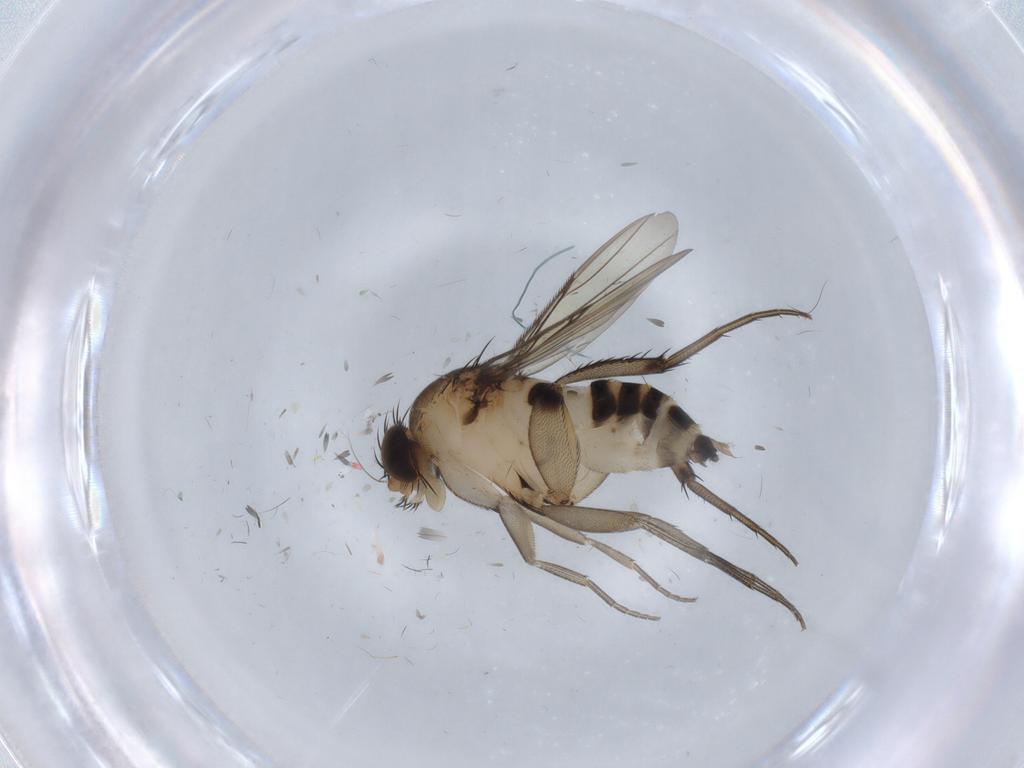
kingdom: Animalia
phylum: Arthropoda
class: Insecta
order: Diptera
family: Phoridae
